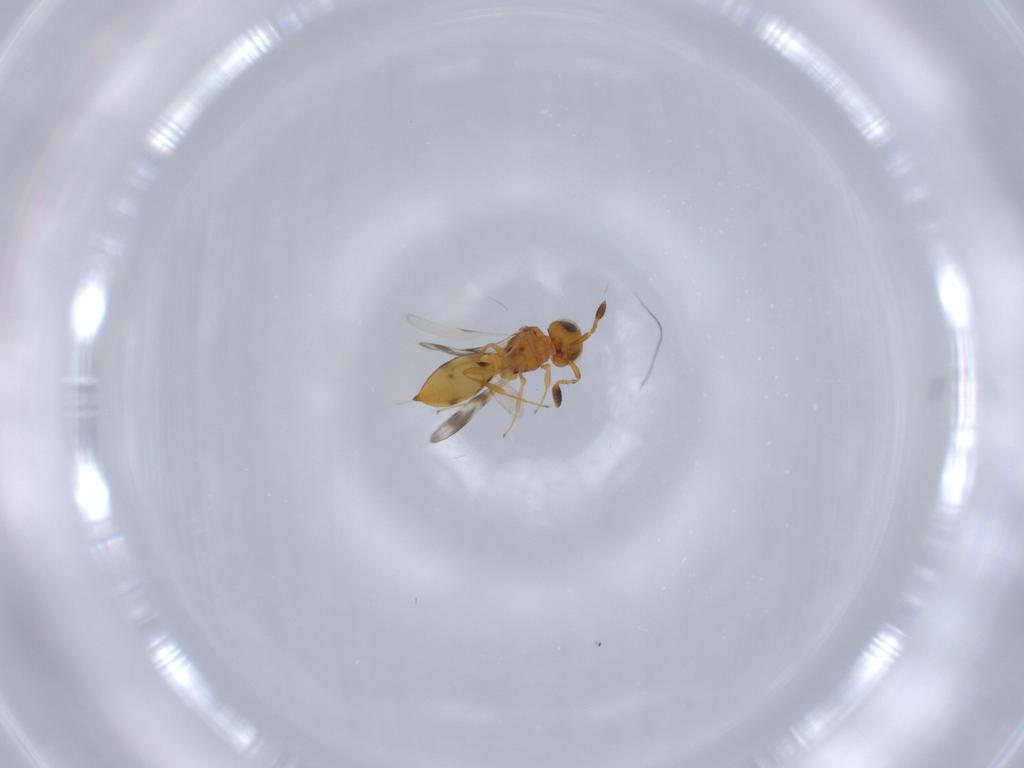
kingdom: Animalia
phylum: Arthropoda
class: Insecta
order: Hymenoptera
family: Scelionidae
